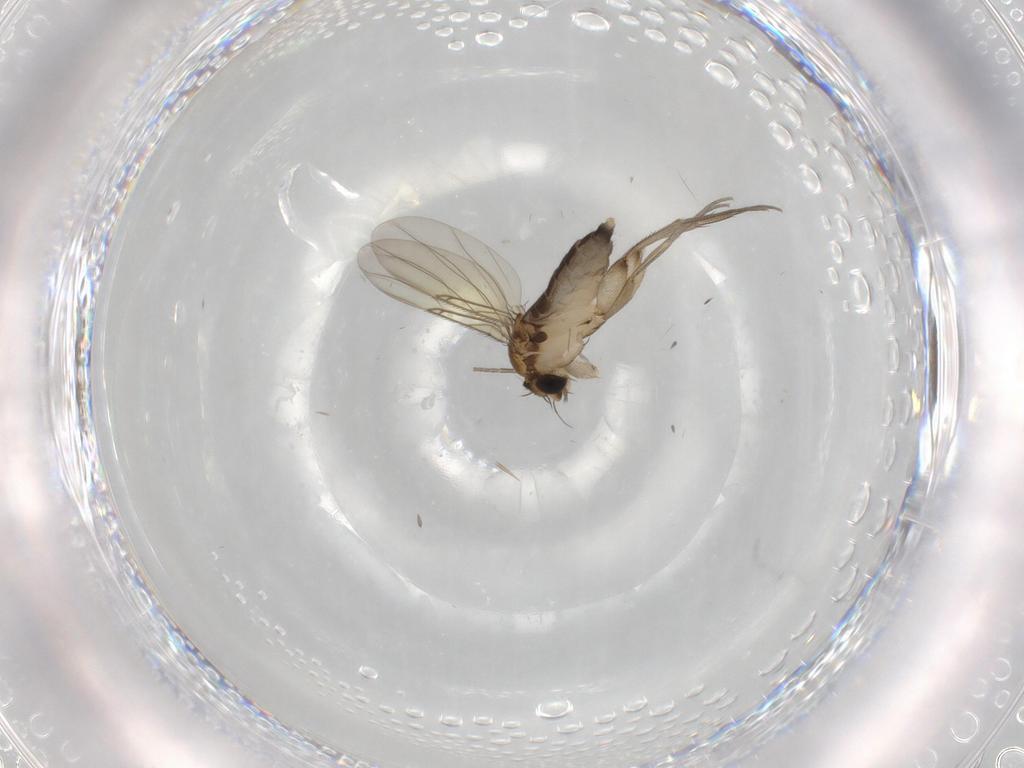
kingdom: Animalia
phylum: Arthropoda
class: Insecta
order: Diptera
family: Phoridae
